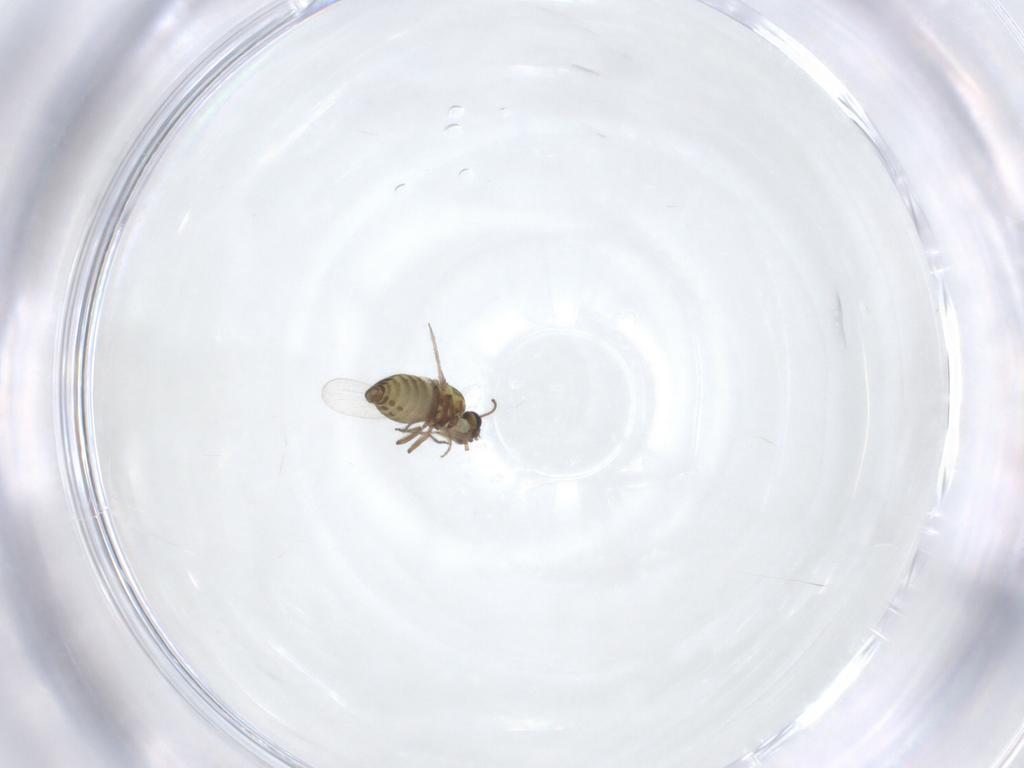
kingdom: Animalia
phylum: Arthropoda
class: Insecta
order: Diptera
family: Ceratopogonidae
